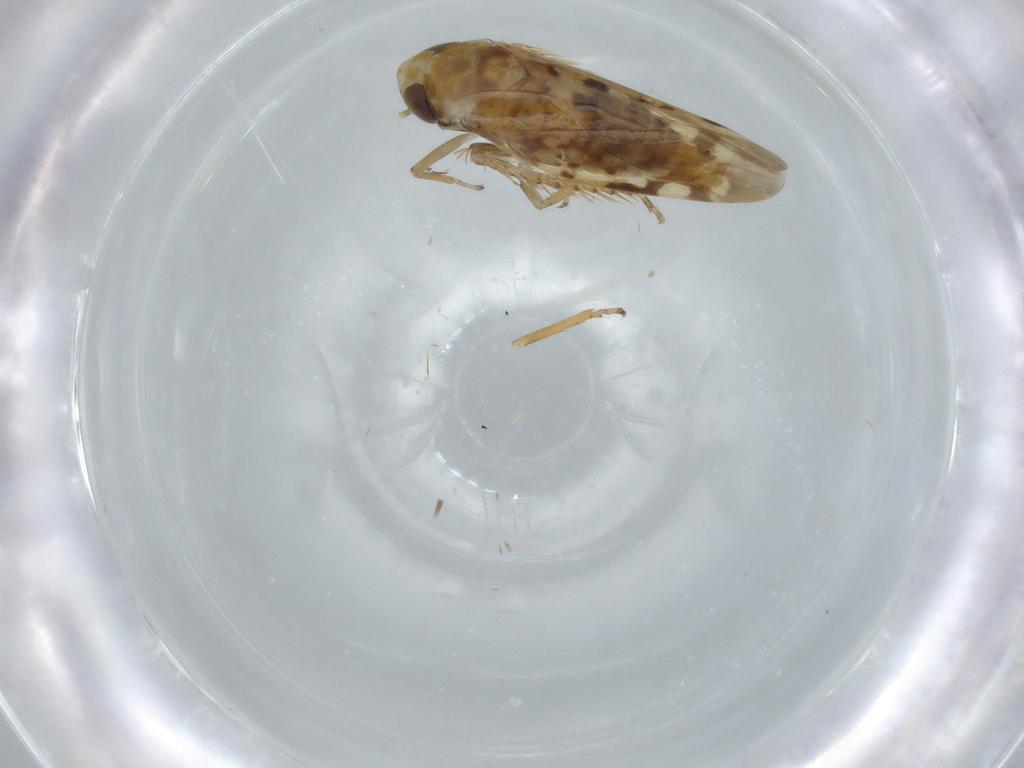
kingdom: Animalia
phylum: Arthropoda
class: Insecta
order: Hemiptera
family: Cicadellidae
